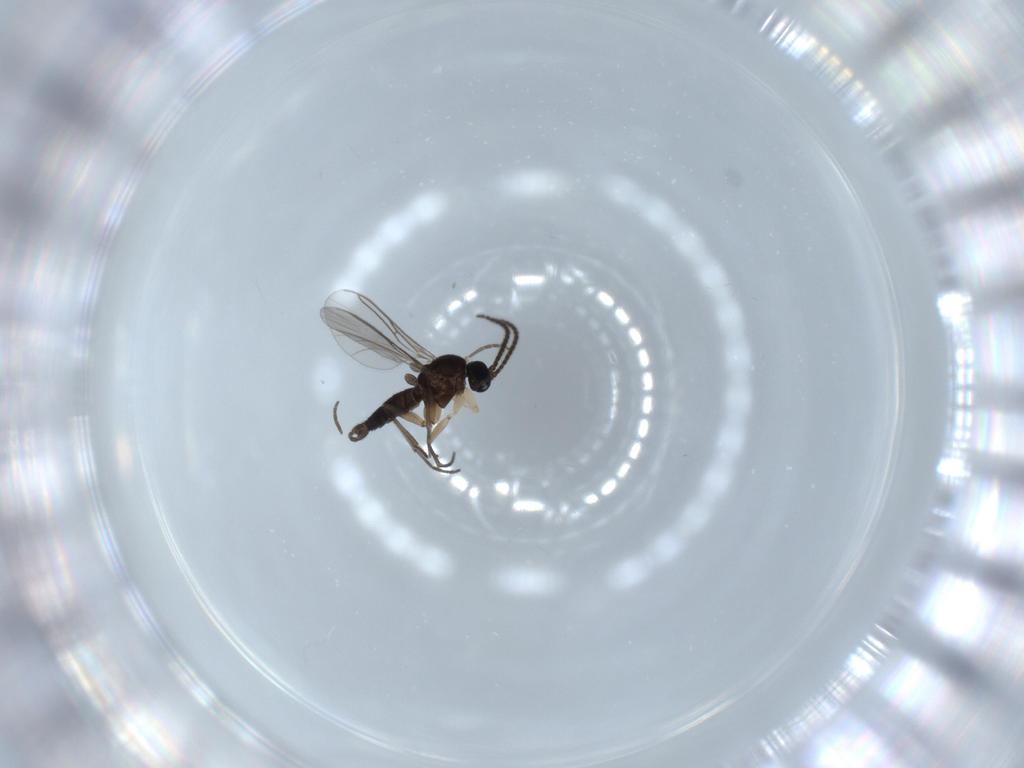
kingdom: Animalia
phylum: Arthropoda
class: Insecta
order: Diptera
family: Sciaridae
